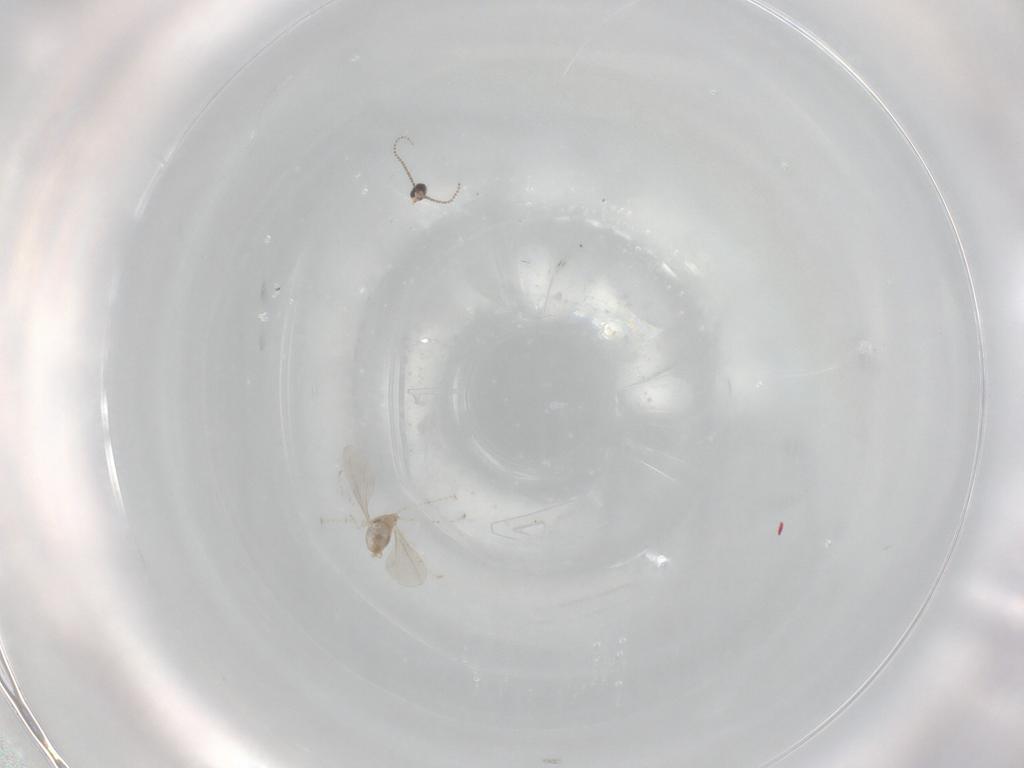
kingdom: Animalia
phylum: Arthropoda
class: Insecta
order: Diptera
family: Cecidomyiidae
